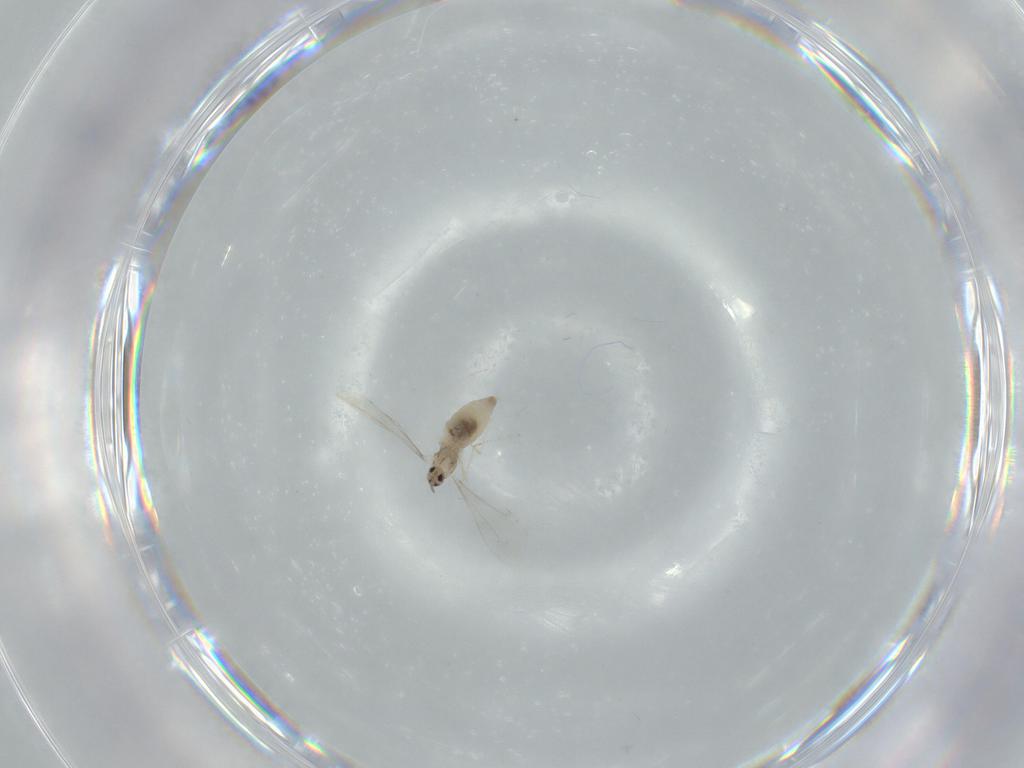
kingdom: Animalia
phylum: Arthropoda
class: Insecta
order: Diptera
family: Cecidomyiidae
